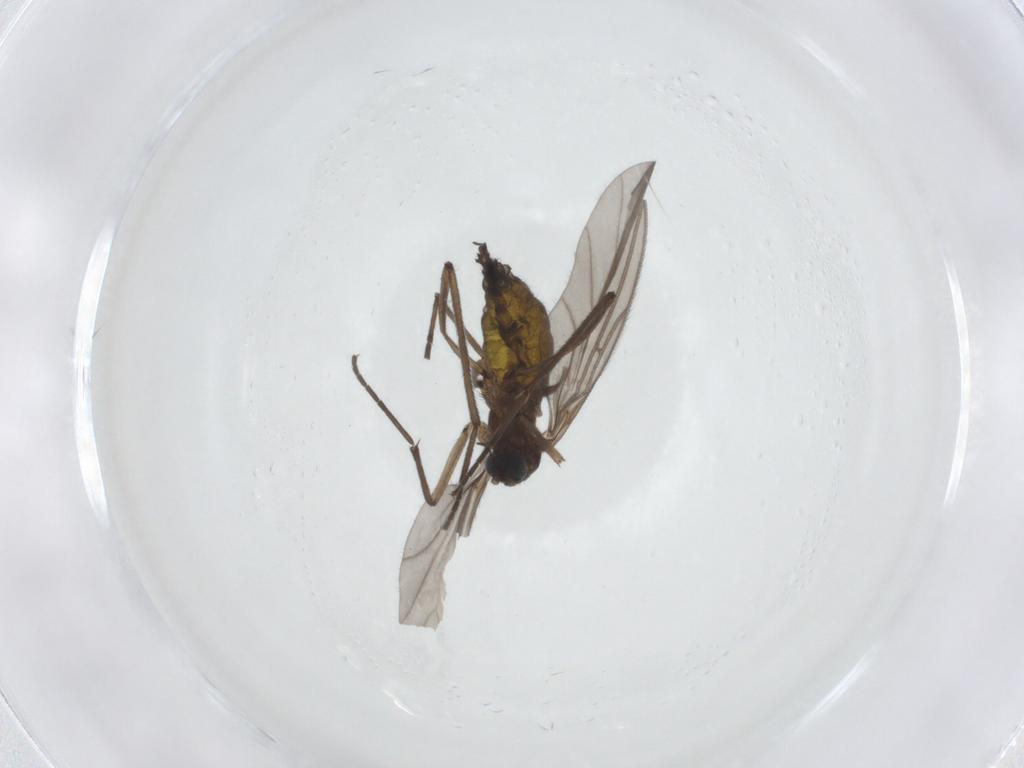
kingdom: Animalia
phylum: Arthropoda
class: Insecta
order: Diptera
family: Sciaridae
